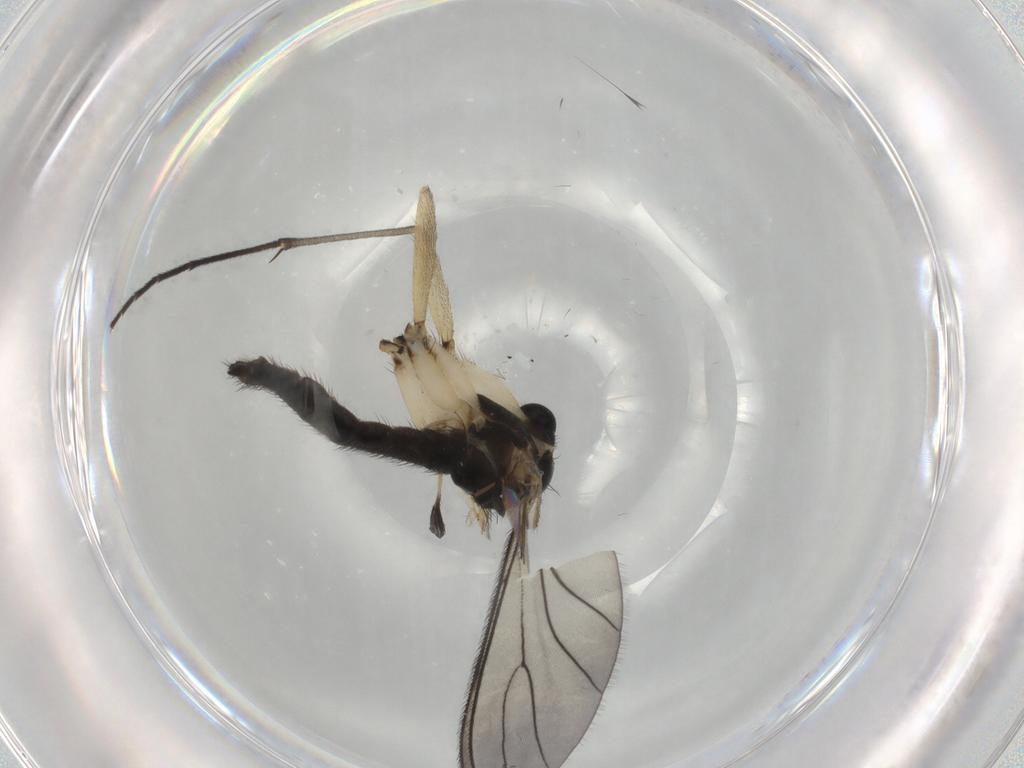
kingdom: Animalia
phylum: Arthropoda
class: Insecta
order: Diptera
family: Sciaridae
